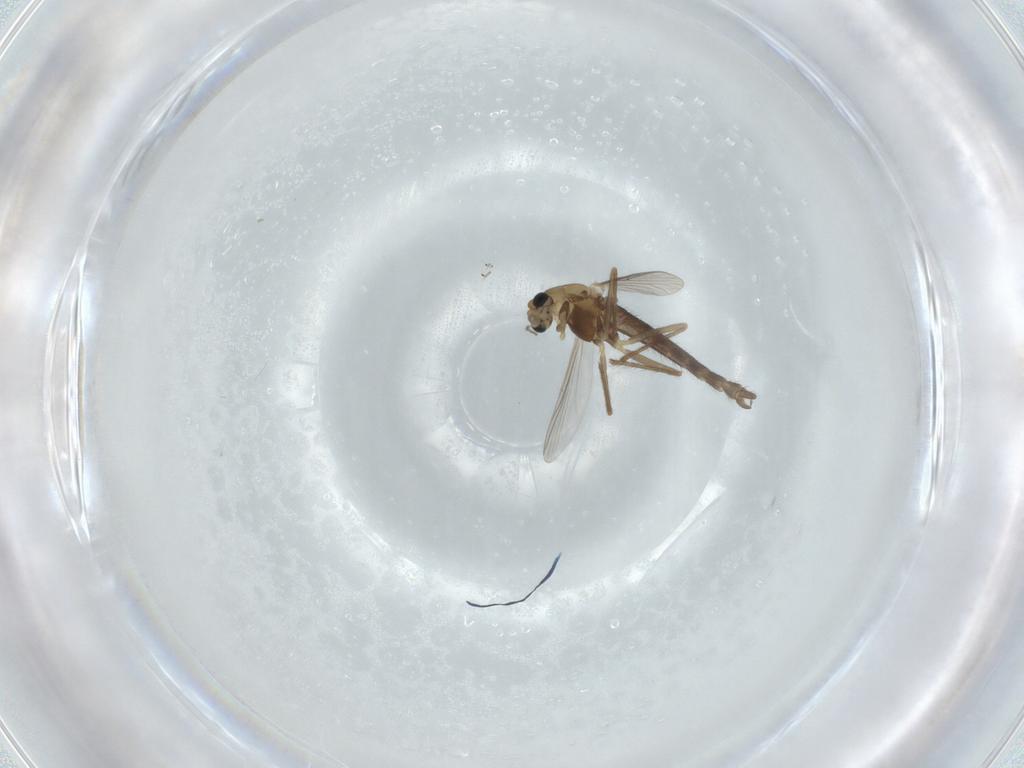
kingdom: Animalia
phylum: Arthropoda
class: Insecta
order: Diptera
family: Chironomidae
